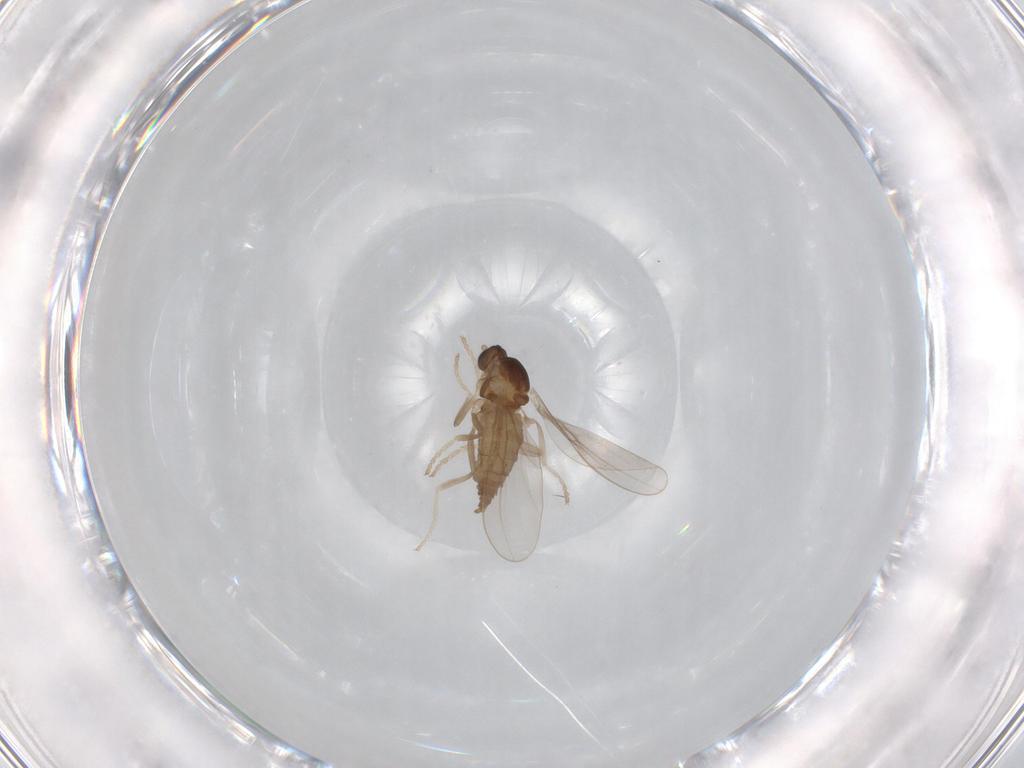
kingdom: Animalia
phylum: Arthropoda
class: Insecta
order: Diptera
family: Cecidomyiidae
